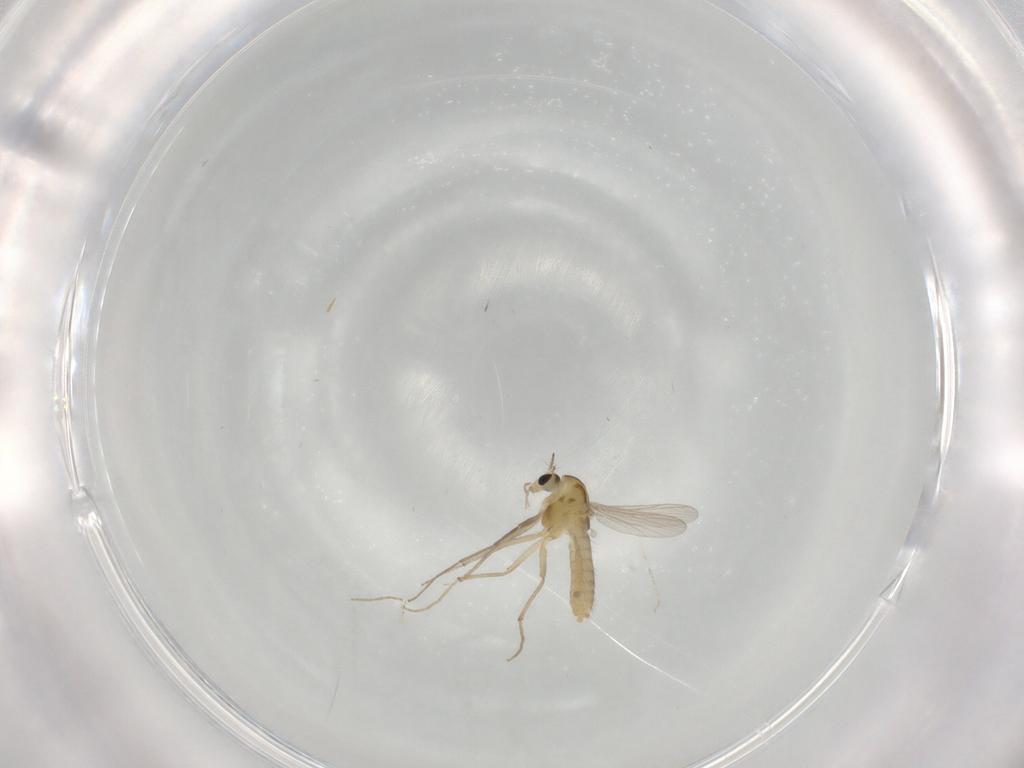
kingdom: Animalia
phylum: Arthropoda
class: Insecta
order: Diptera
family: Chironomidae
